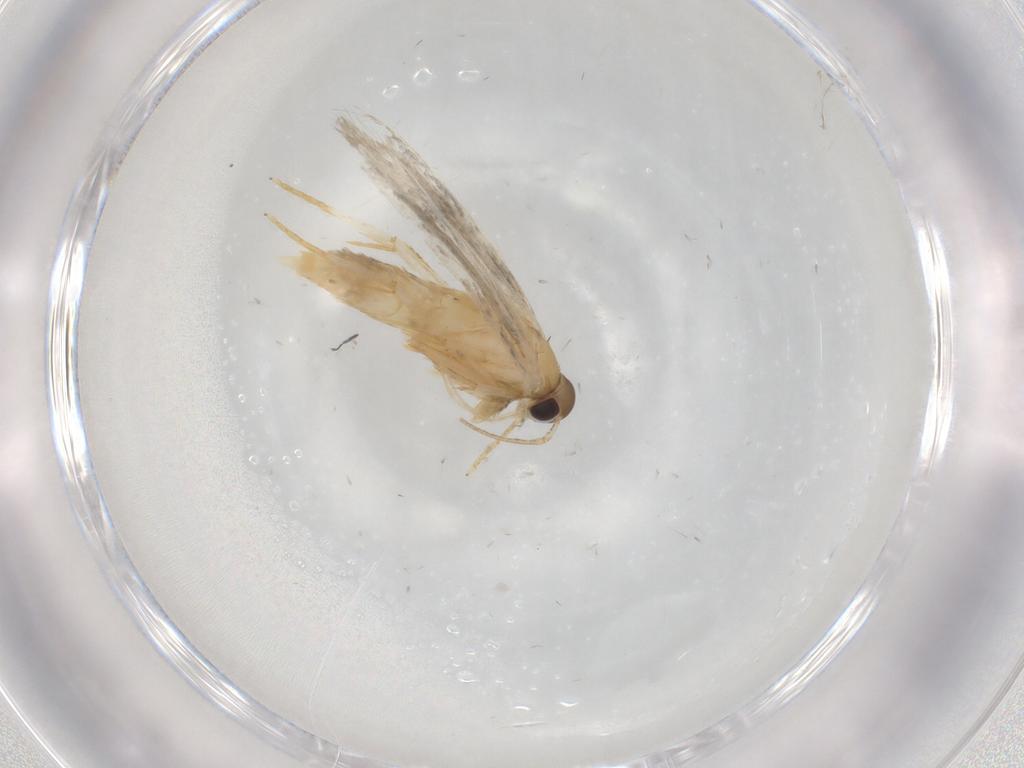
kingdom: Animalia
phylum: Arthropoda
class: Insecta
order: Lepidoptera
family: Autostichidae
